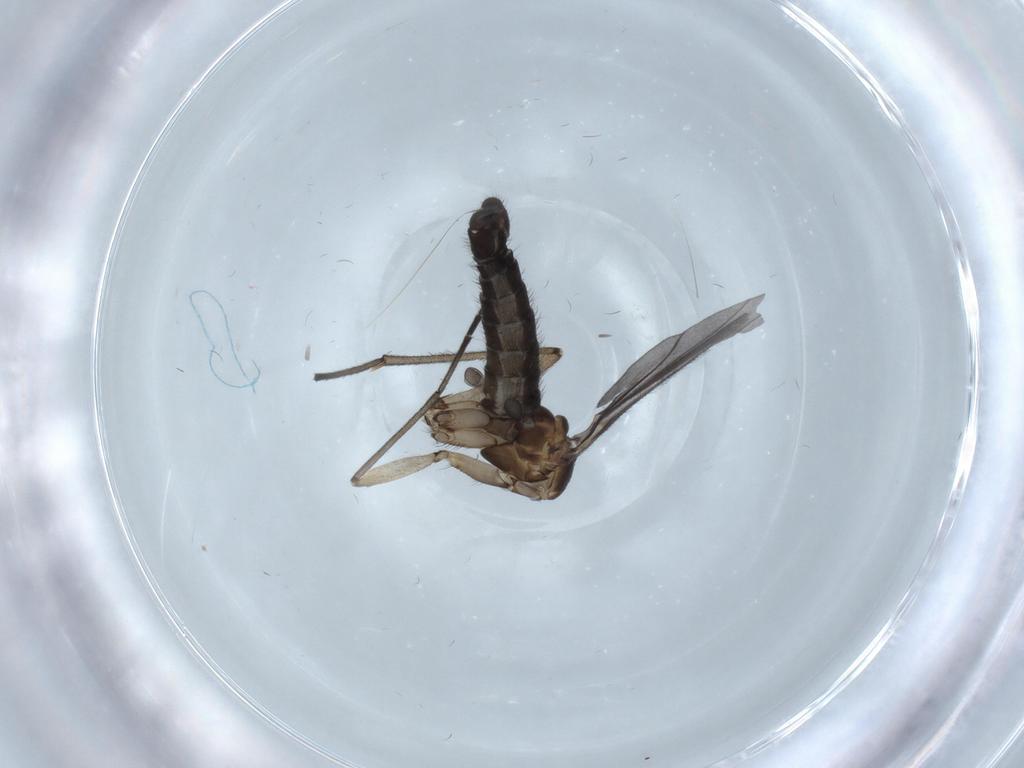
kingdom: Animalia
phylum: Arthropoda
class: Insecta
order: Diptera
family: Sciaridae
